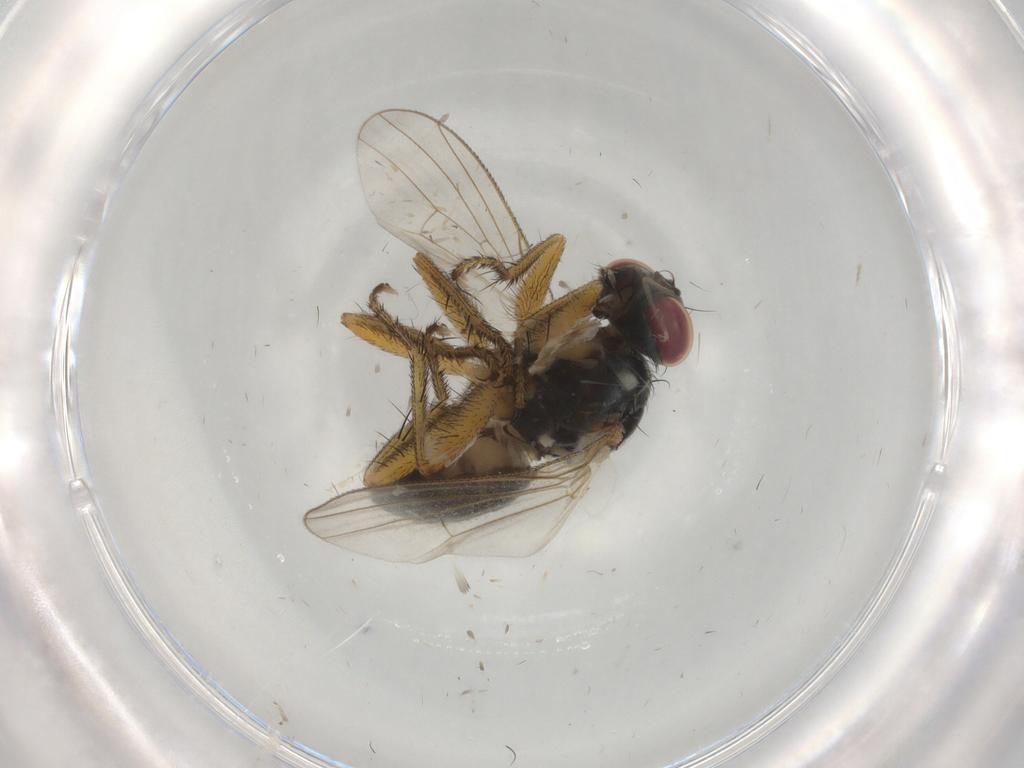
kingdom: Animalia
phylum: Arthropoda
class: Insecta
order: Diptera
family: Muscidae
